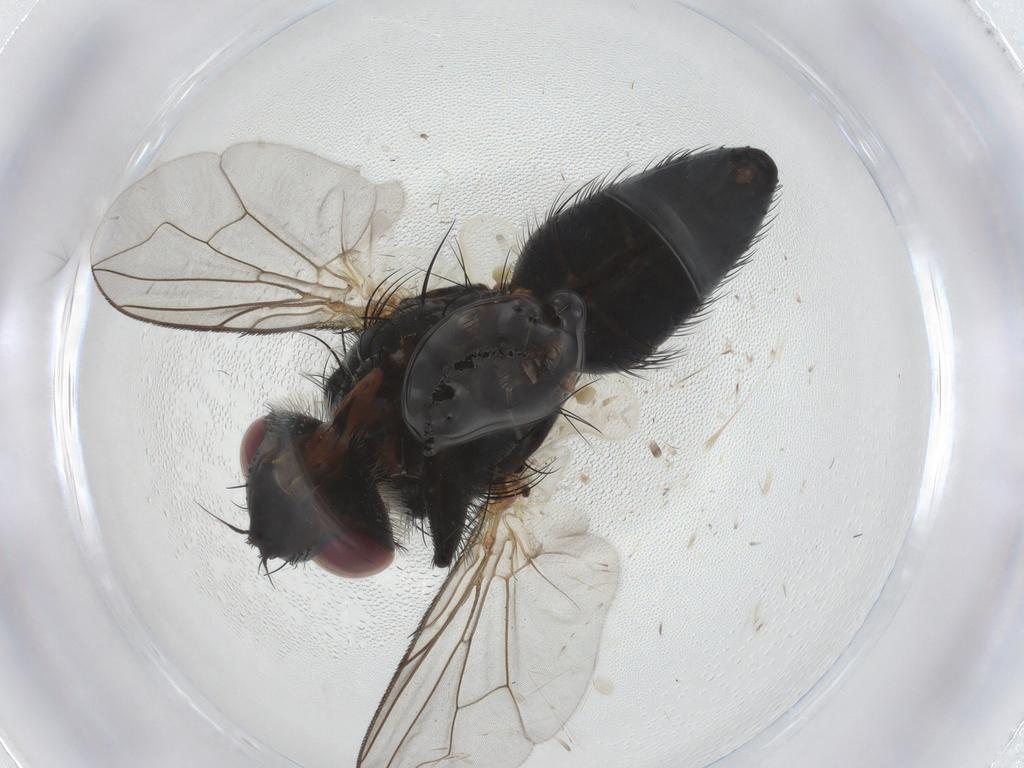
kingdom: Animalia
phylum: Arthropoda
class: Insecta
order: Diptera
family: Tachinidae
